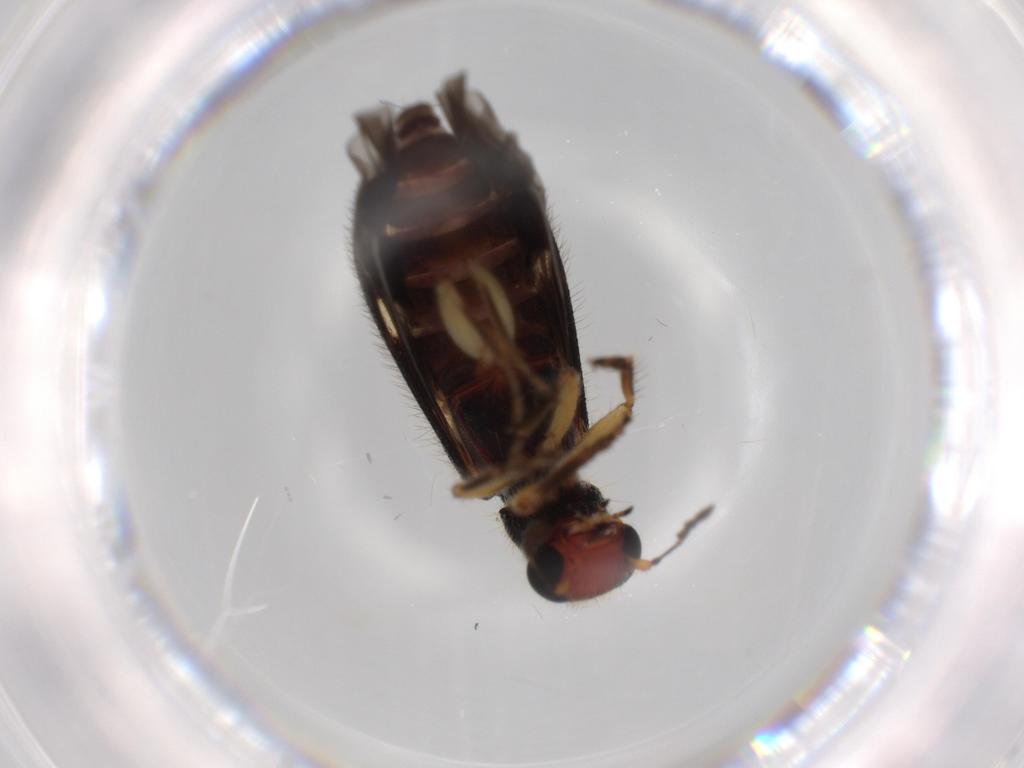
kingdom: Animalia
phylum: Arthropoda
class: Insecta
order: Coleoptera
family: Cleridae
